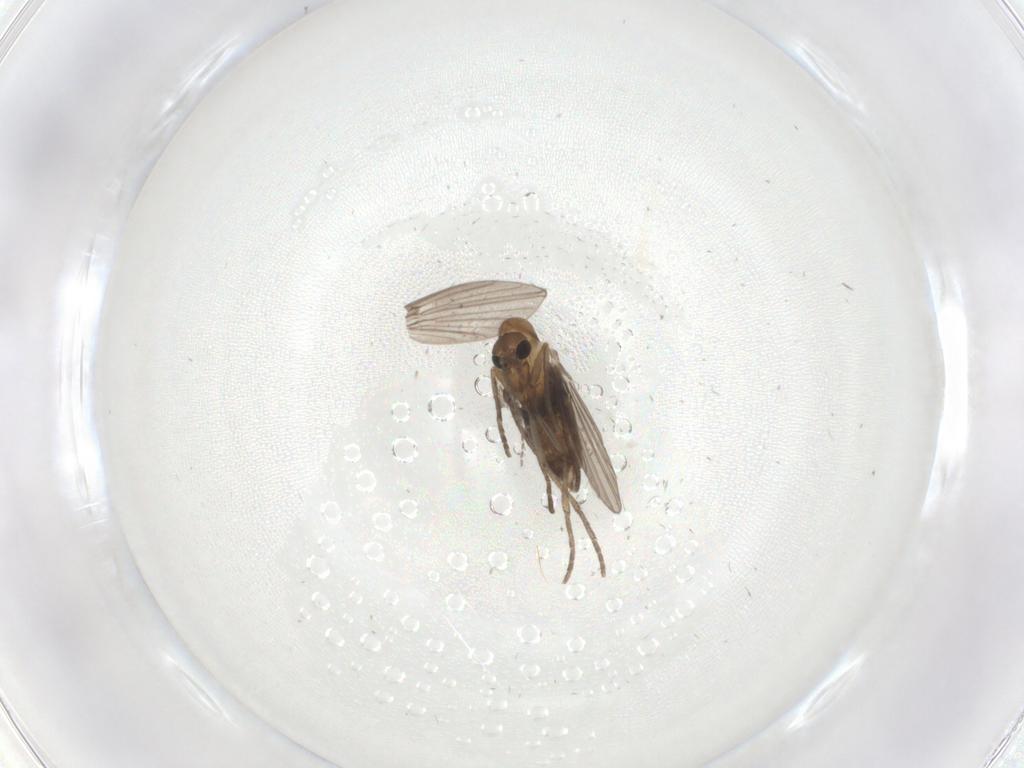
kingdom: Animalia
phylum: Arthropoda
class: Insecta
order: Diptera
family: Psychodidae
